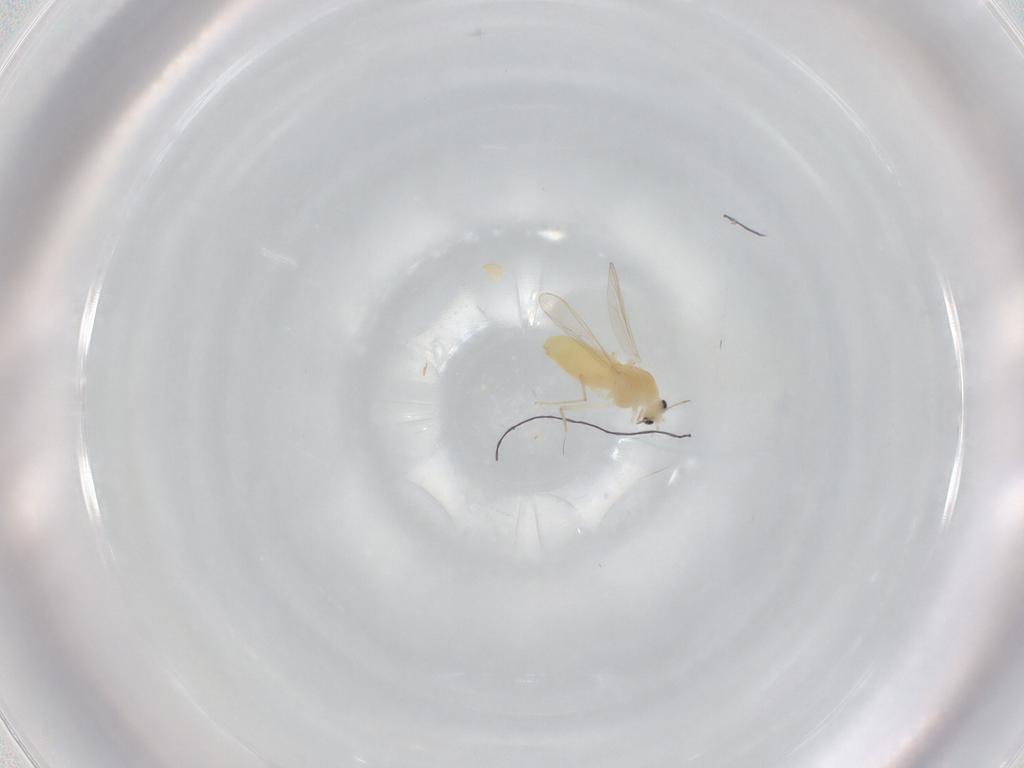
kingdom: Animalia
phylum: Arthropoda
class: Insecta
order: Diptera
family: Chironomidae
